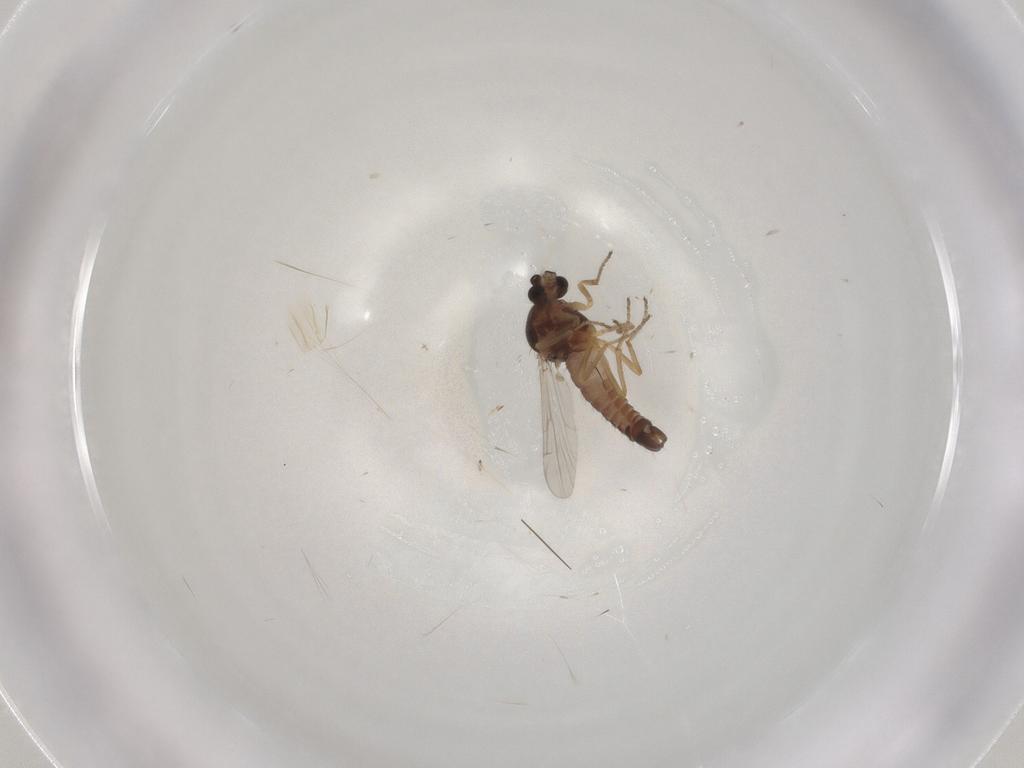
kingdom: Animalia
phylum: Arthropoda
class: Insecta
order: Diptera
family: Ceratopogonidae
